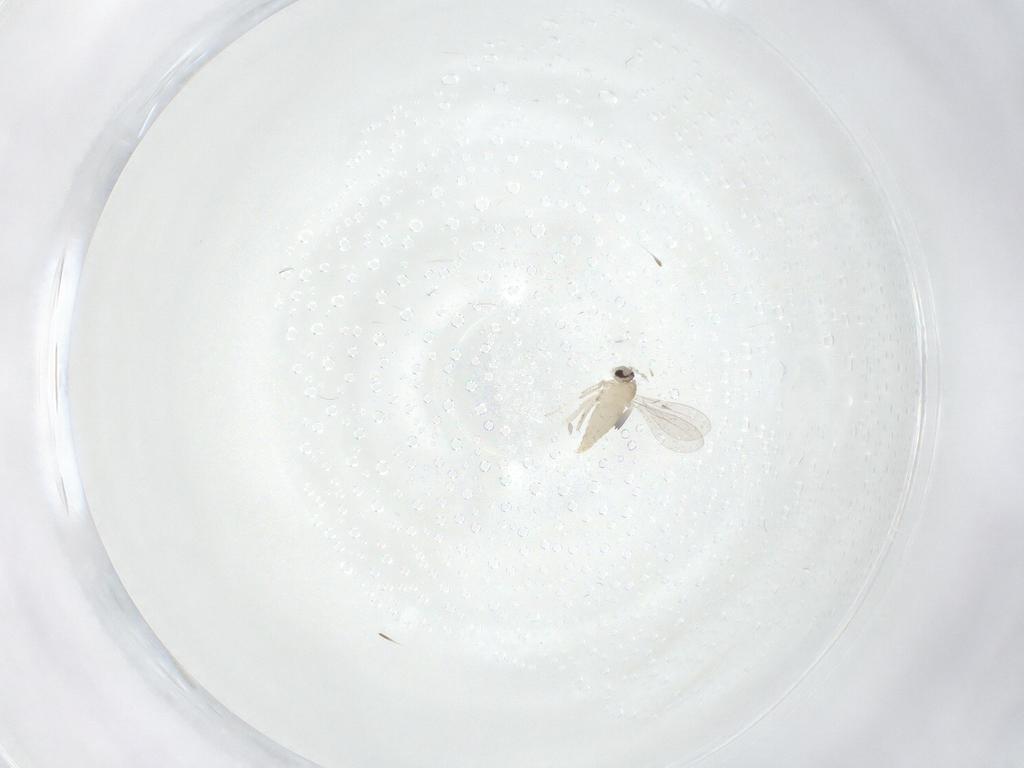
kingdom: Animalia
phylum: Arthropoda
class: Insecta
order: Diptera
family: Cecidomyiidae
